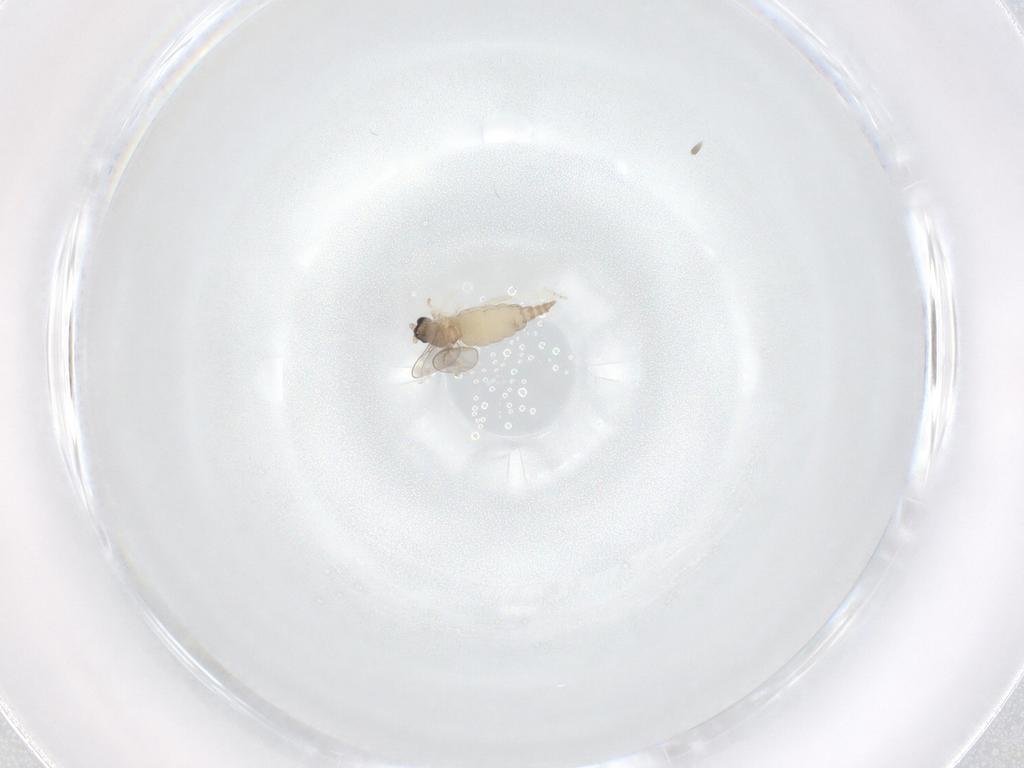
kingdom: Animalia
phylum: Arthropoda
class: Insecta
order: Diptera
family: Cecidomyiidae
